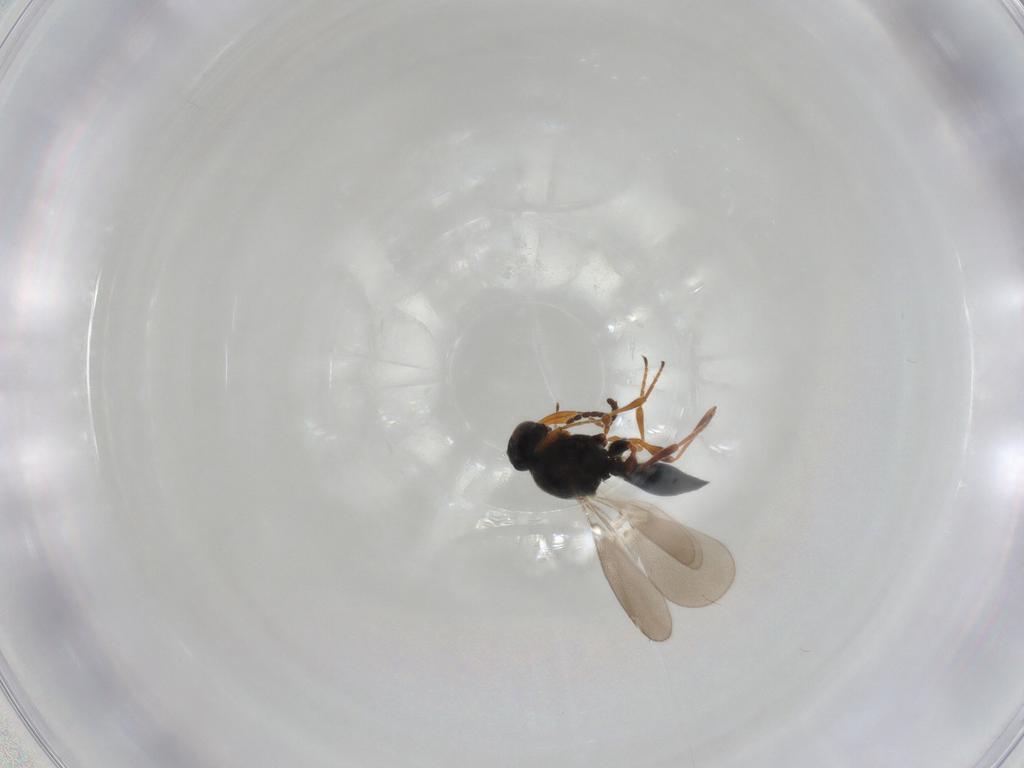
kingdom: Animalia
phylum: Arthropoda
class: Insecta
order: Hymenoptera
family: Platygastridae
